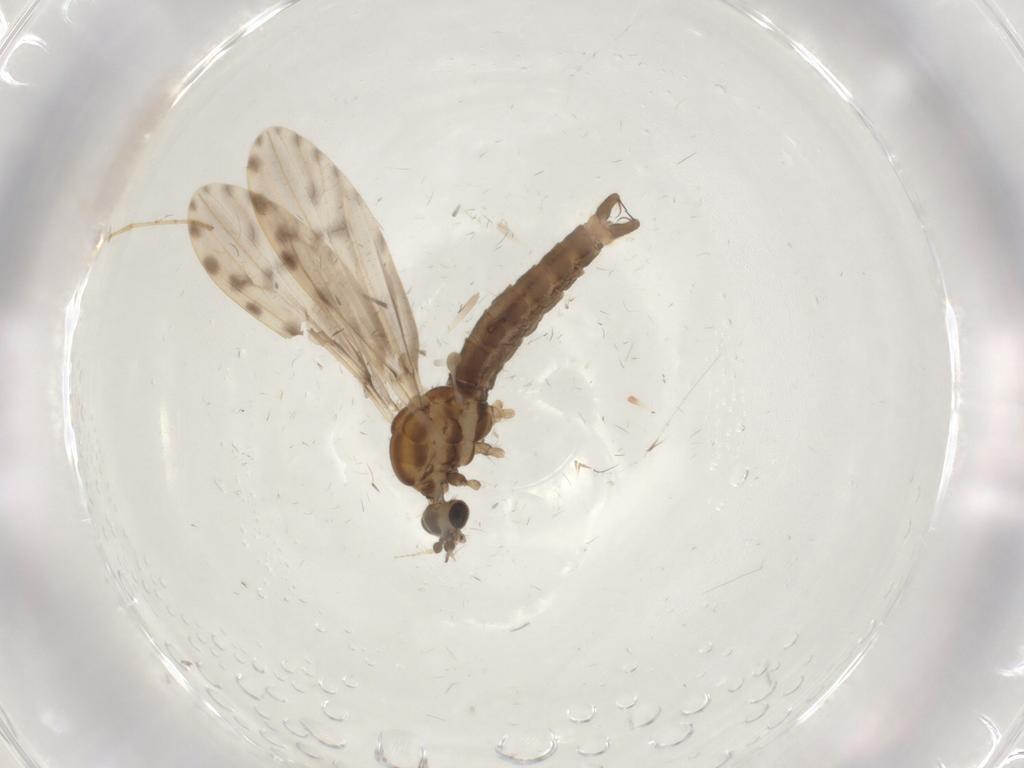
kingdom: Animalia
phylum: Arthropoda
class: Insecta
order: Diptera
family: Limoniidae
